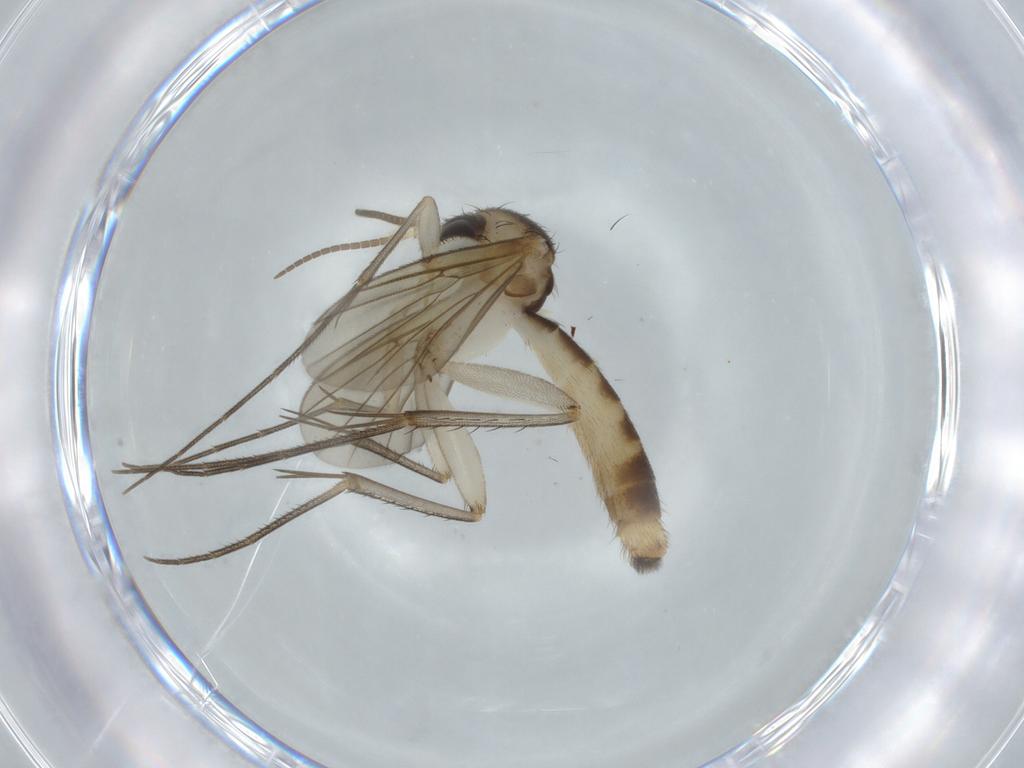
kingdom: Animalia
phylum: Arthropoda
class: Insecta
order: Diptera
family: Mycetophilidae
